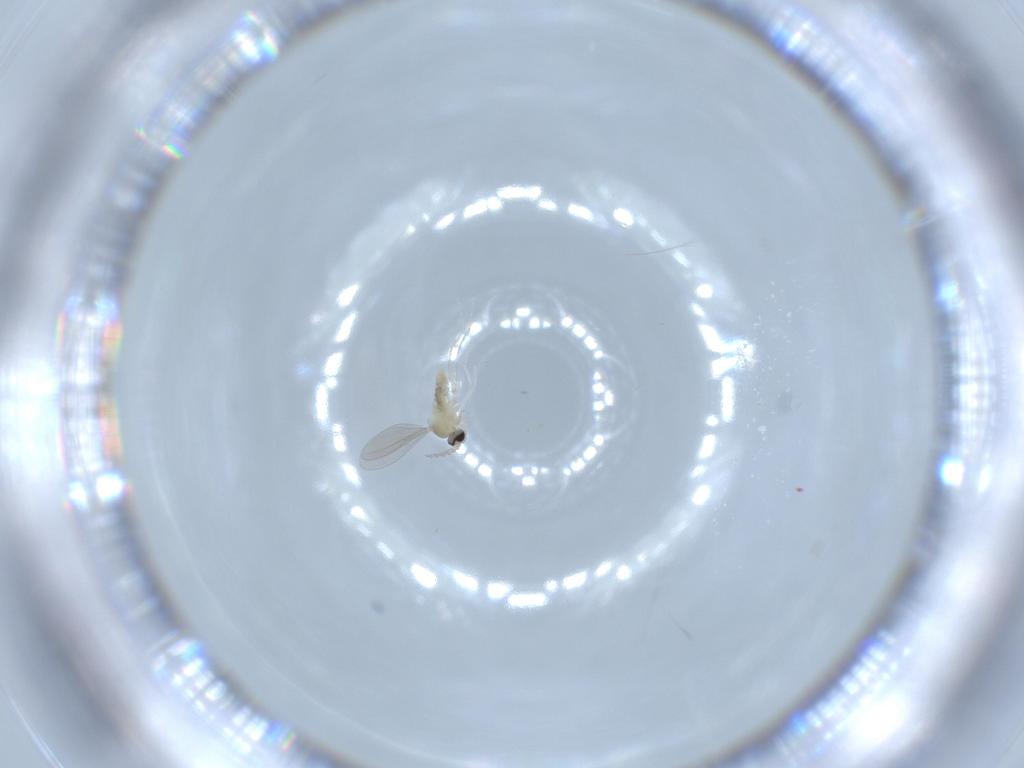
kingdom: Animalia
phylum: Arthropoda
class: Insecta
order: Diptera
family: Cecidomyiidae
